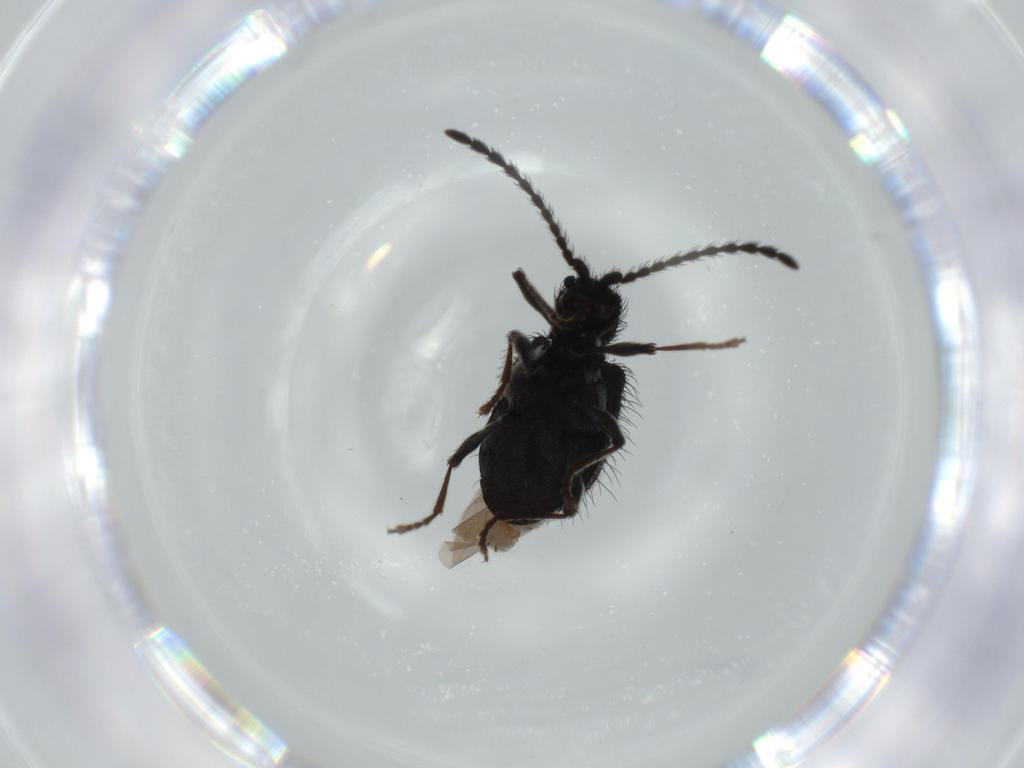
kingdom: Animalia
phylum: Arthropoda
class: Insecta
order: Coleoptera
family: Ptinidae
